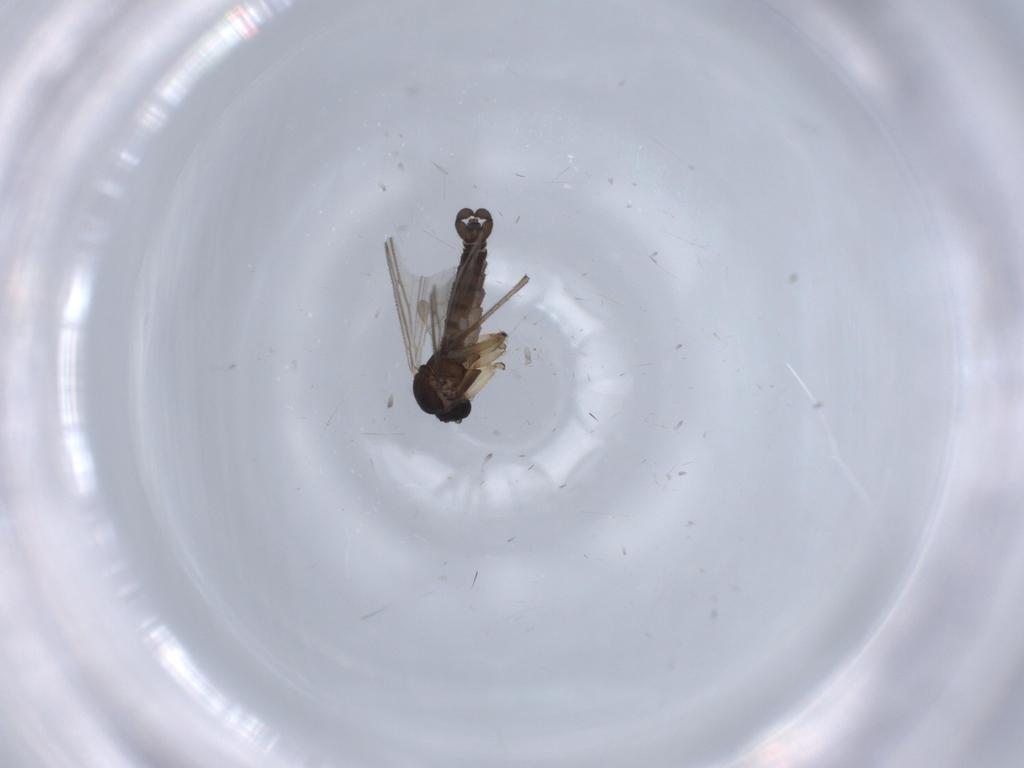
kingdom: Animalia
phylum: Arthropoda
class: Insecta
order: Diptera
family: Sciaridae
